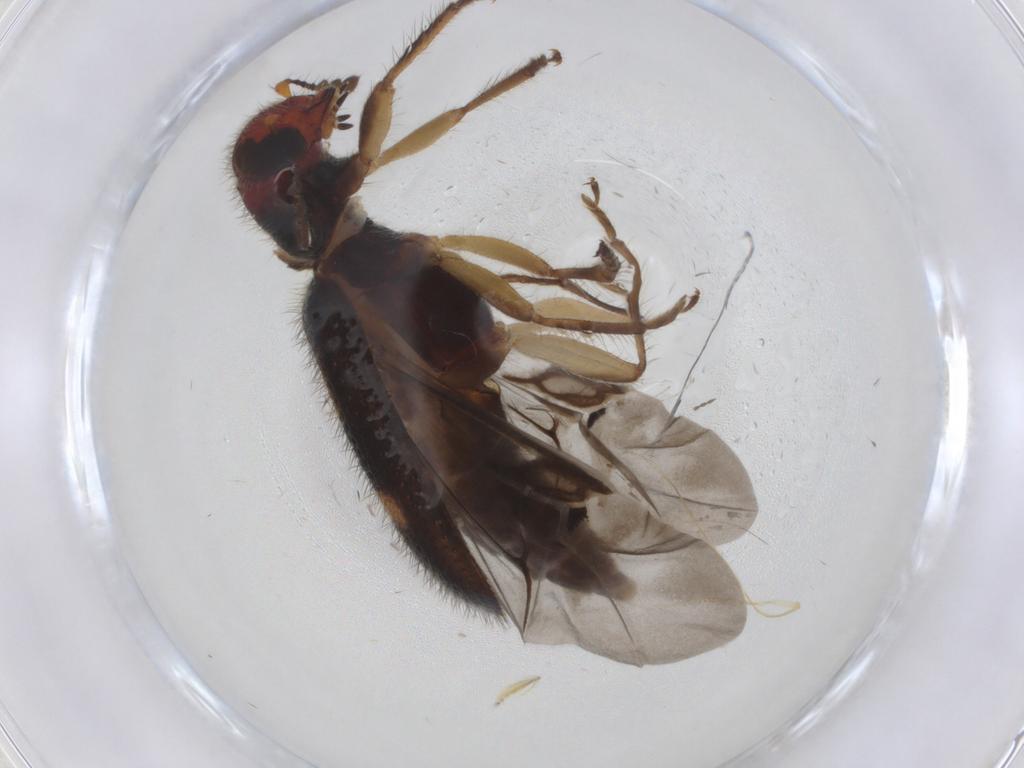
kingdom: Animalia
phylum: Arthropoda
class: Insecta
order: Coleoptera
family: Cleridae
